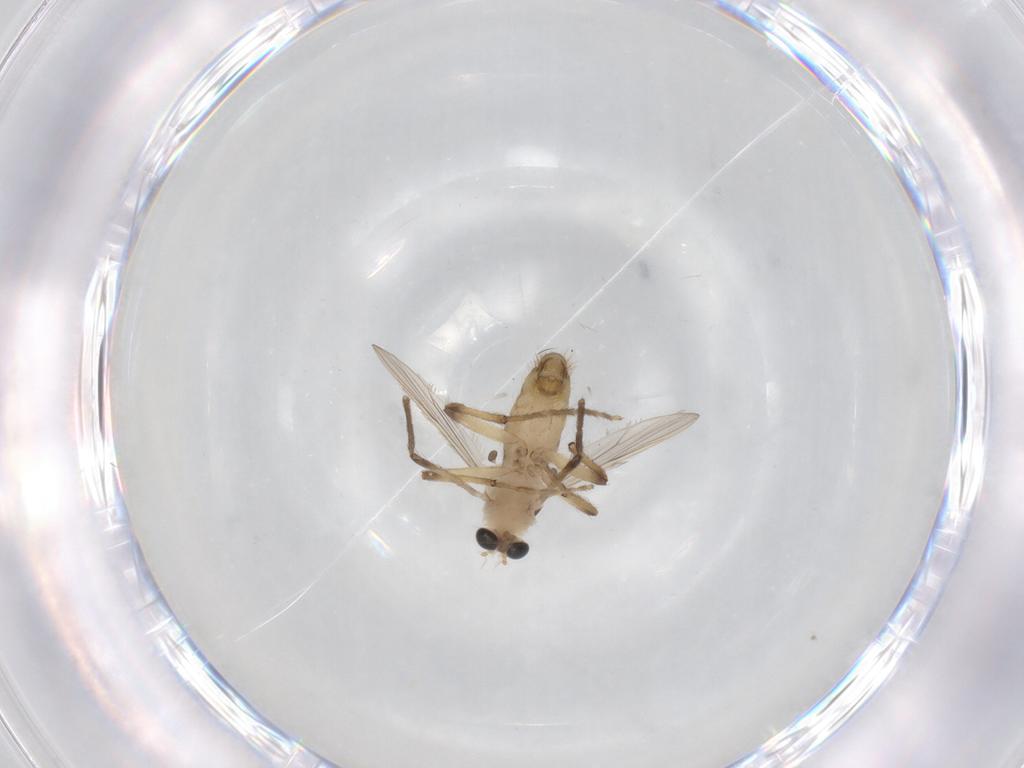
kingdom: Animalia
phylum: Arthropoda
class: Insecta
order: Diptera
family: Chironomidae
